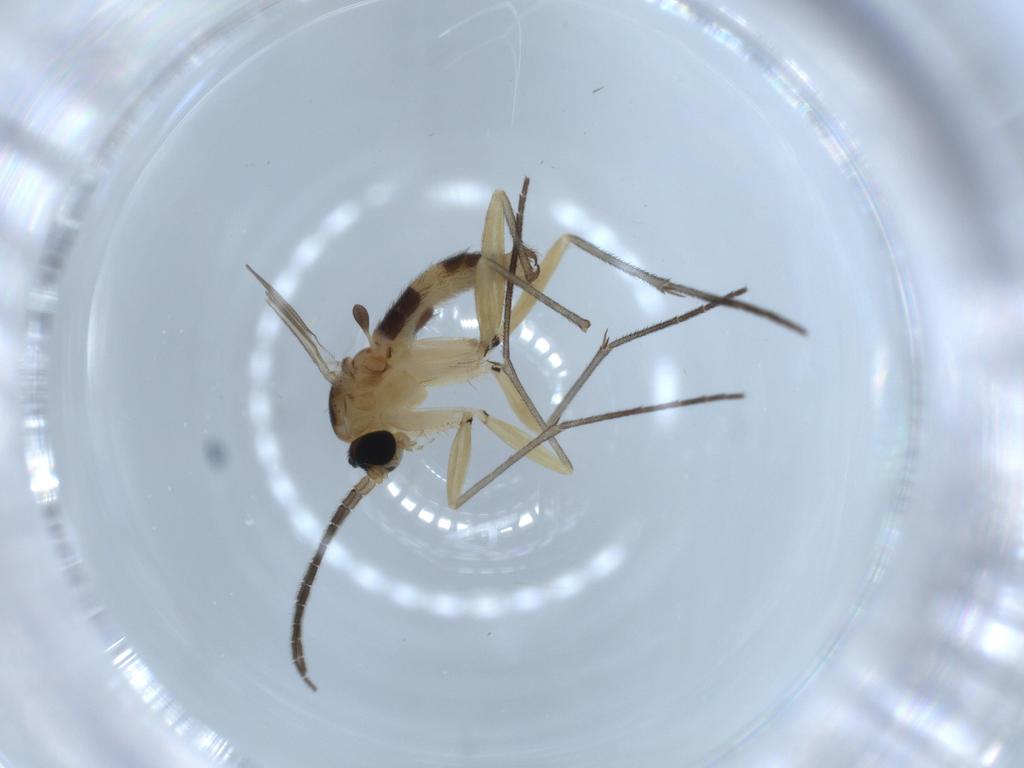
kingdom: Animalia
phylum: Arthropoda
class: Insecta
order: Diptera
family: Sciaridae
